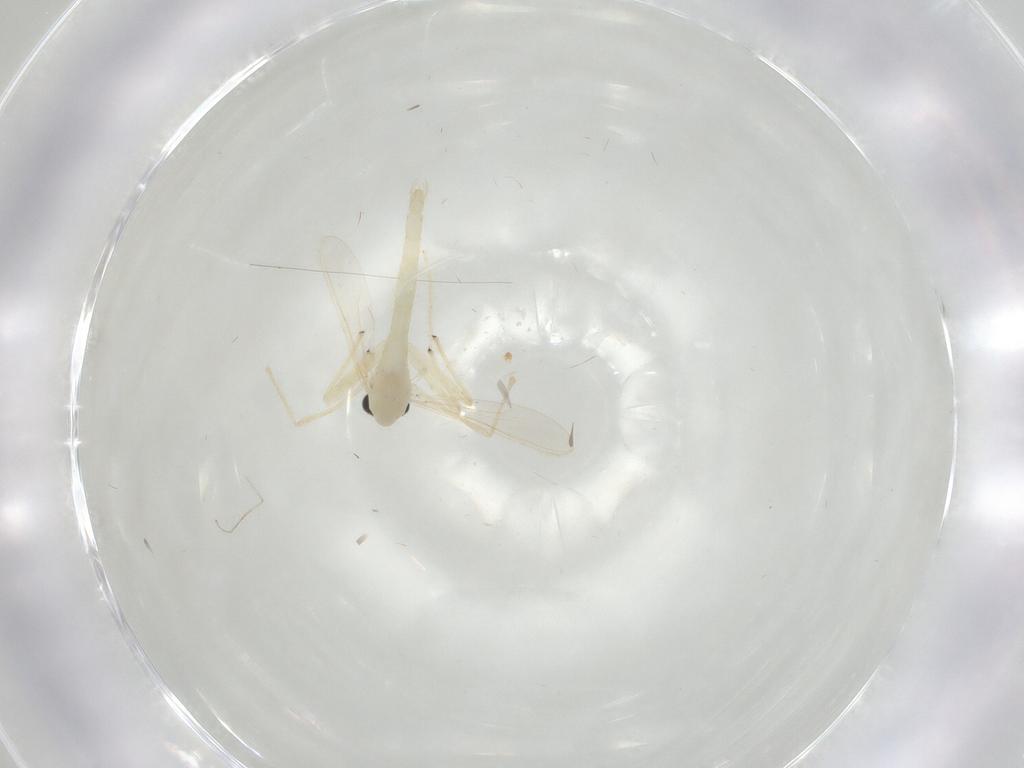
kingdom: Animalia
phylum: Arthropoda
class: Insecta
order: Diptera
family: Chironomidae
